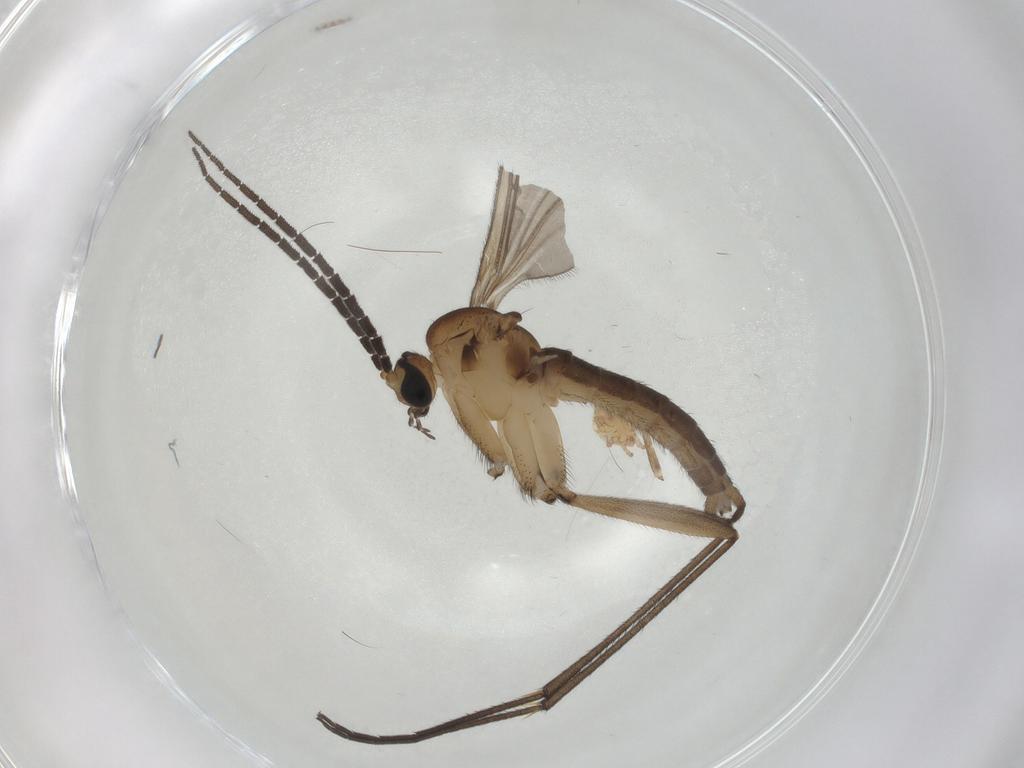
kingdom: Animalia
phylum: Arthropoda
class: Insecta
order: Diptera
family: Sciaridae
